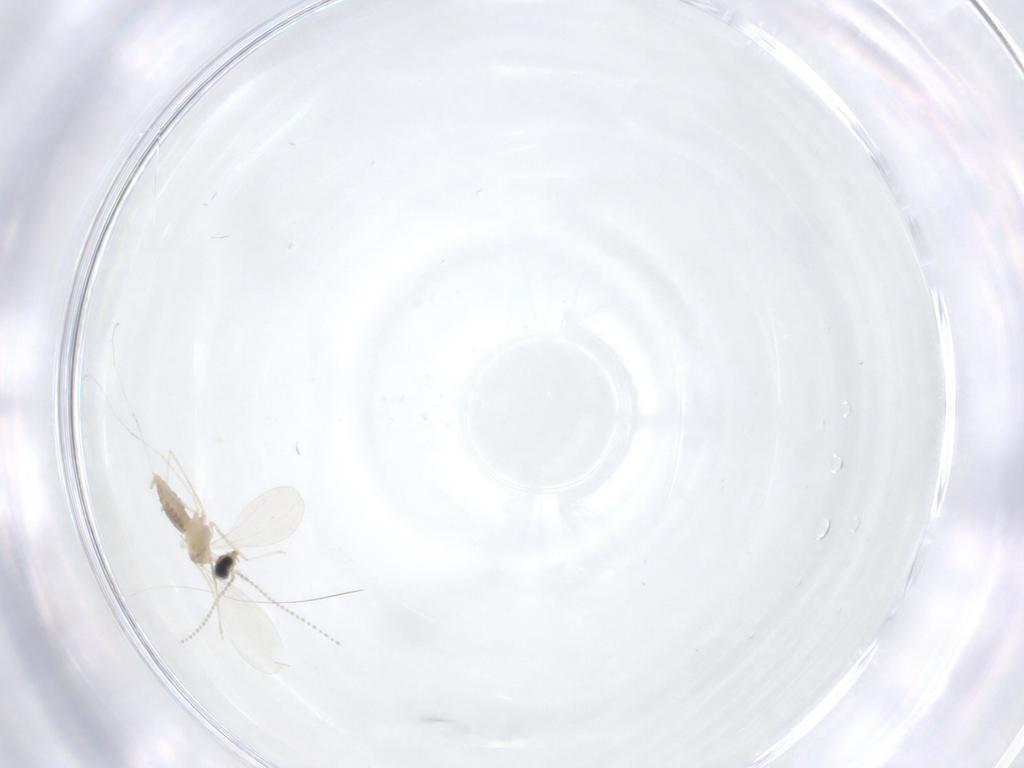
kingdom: Animalia
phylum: Arthropoda
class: Insecta
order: Diptera
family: Cecidomyiidae
